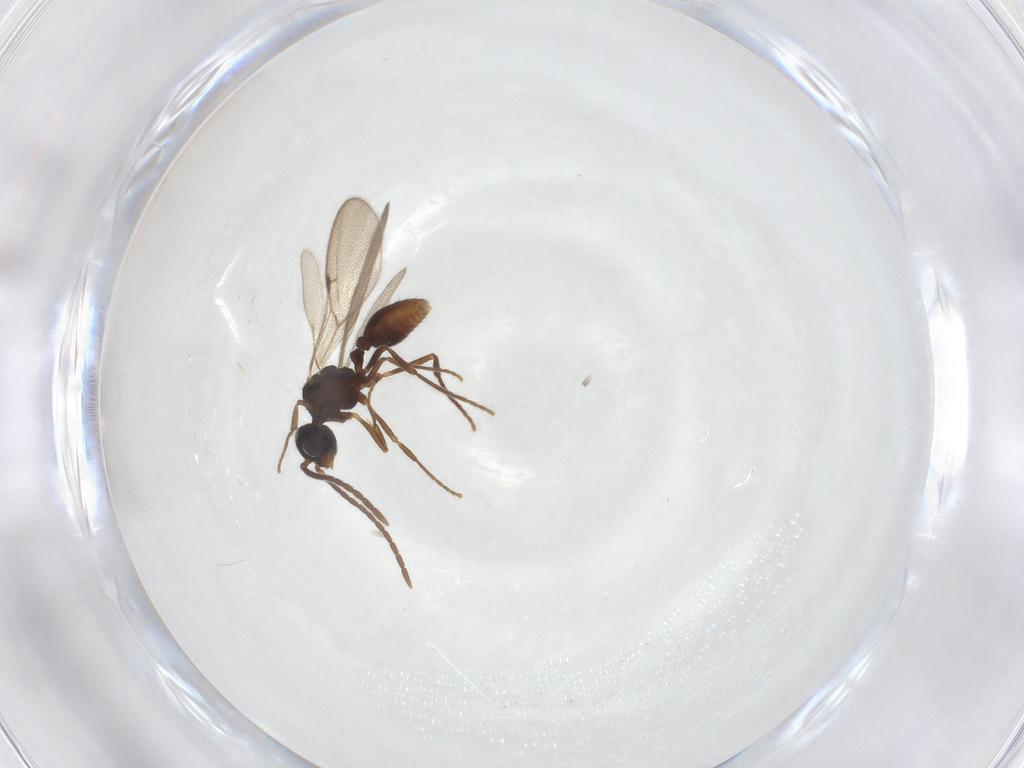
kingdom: Animalia
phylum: Arthropoda
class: Insecta
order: Hymenoptera
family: Formicidae
